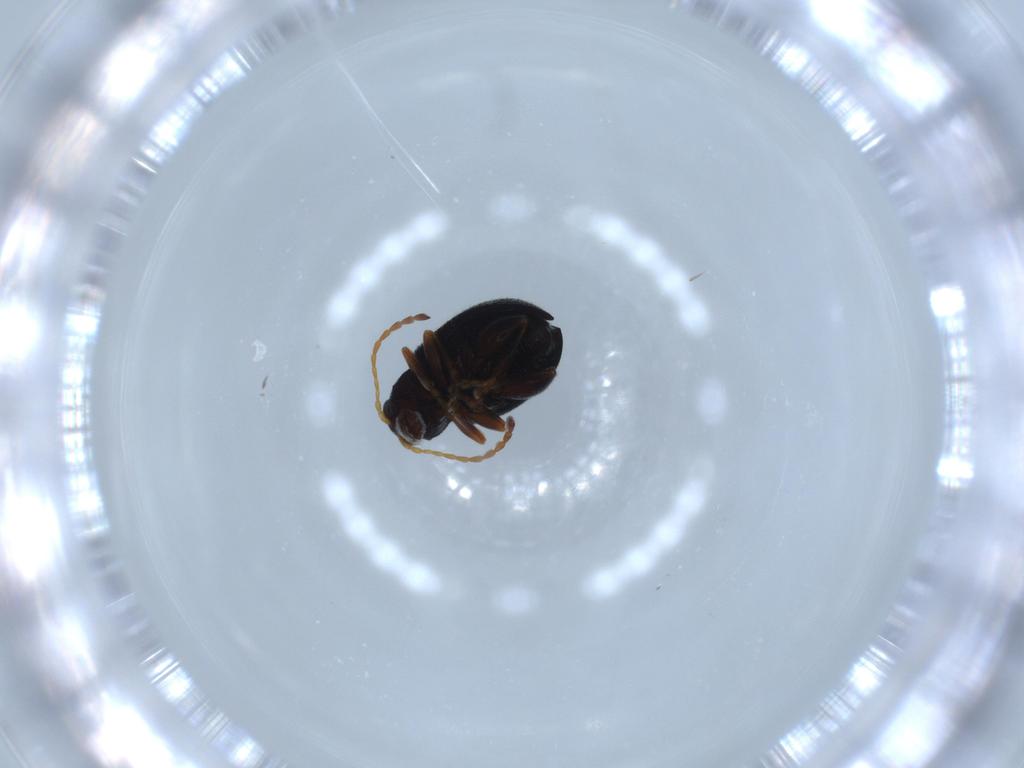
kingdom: Animalia
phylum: Arthropoda
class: Insecta
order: Coleoptera
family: Chrysomelidae
